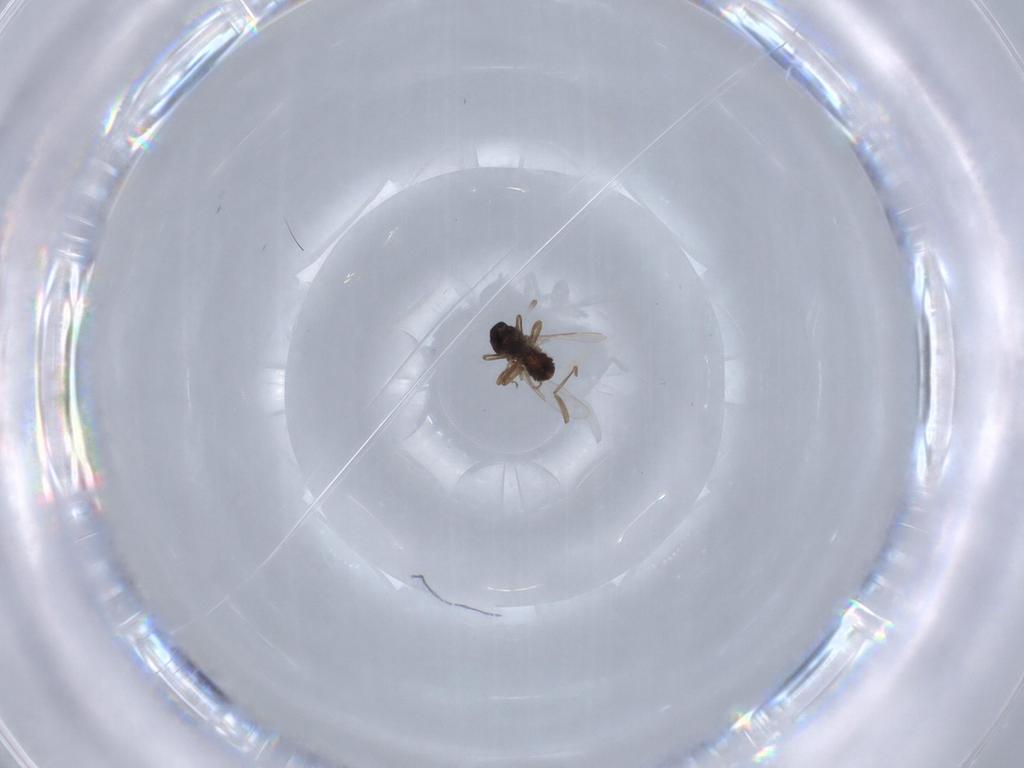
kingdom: Animalia
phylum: Arthropoda
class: Insecta
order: Diptera
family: Ceratopogonidae
